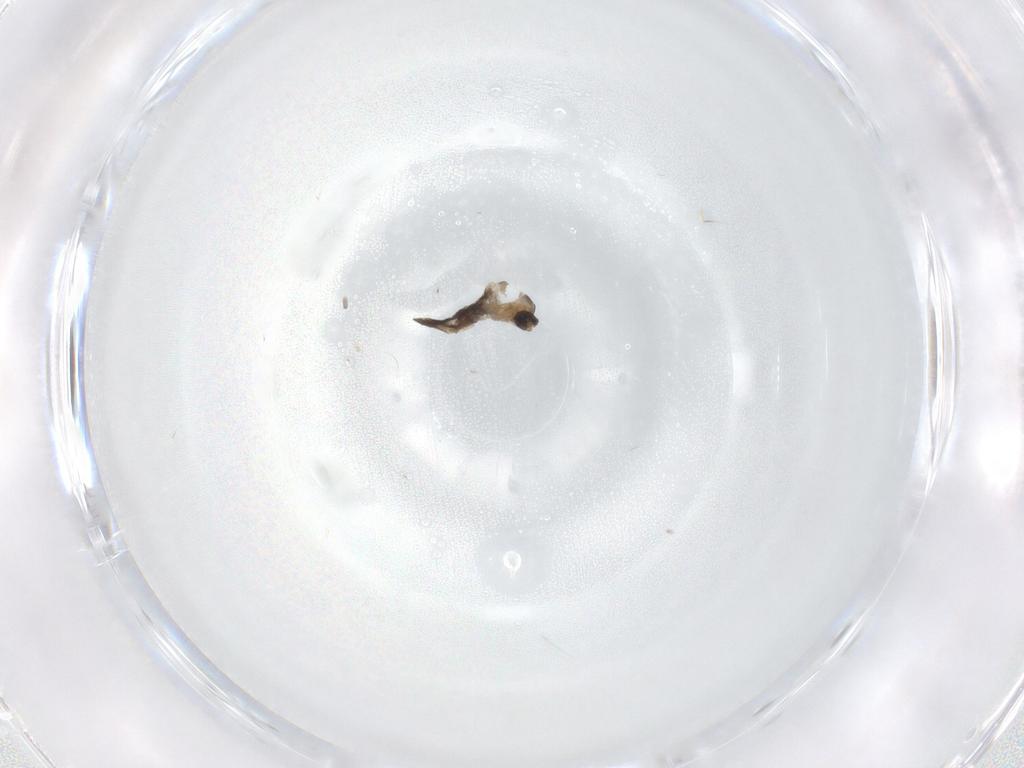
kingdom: Animalia
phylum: Arthropoda
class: Insecta
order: Diptera
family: Cecidomyiidae
